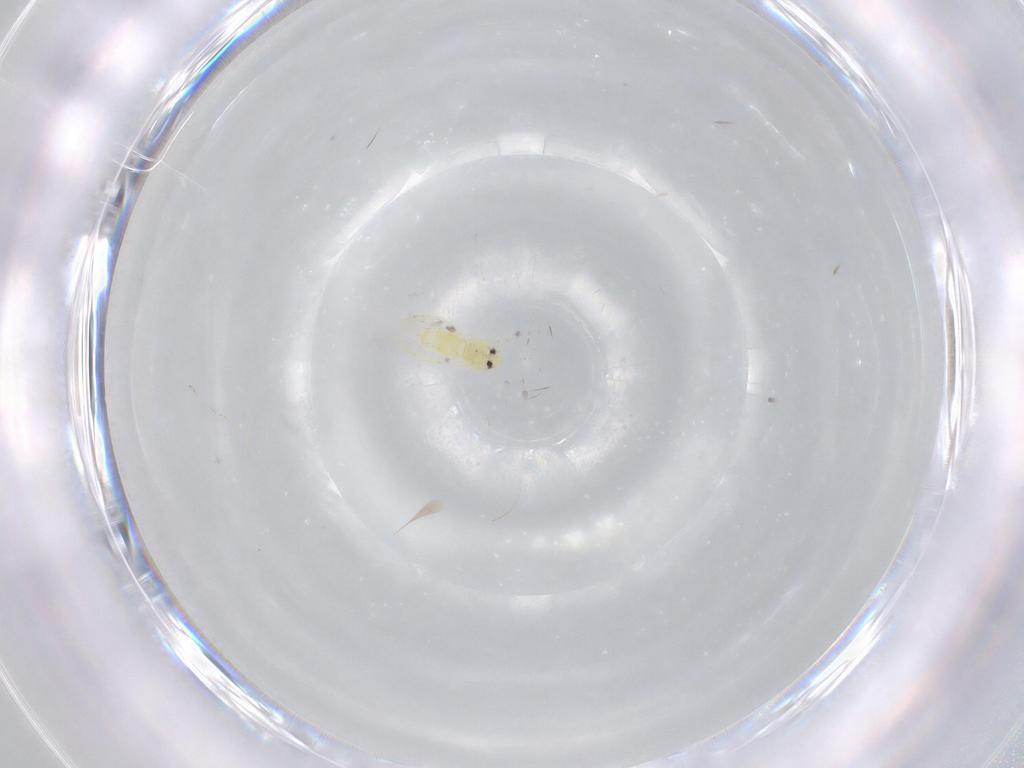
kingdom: Animalia
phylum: Arthropoda
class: Insecta
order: Hemiptera
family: Aleyrodidae
